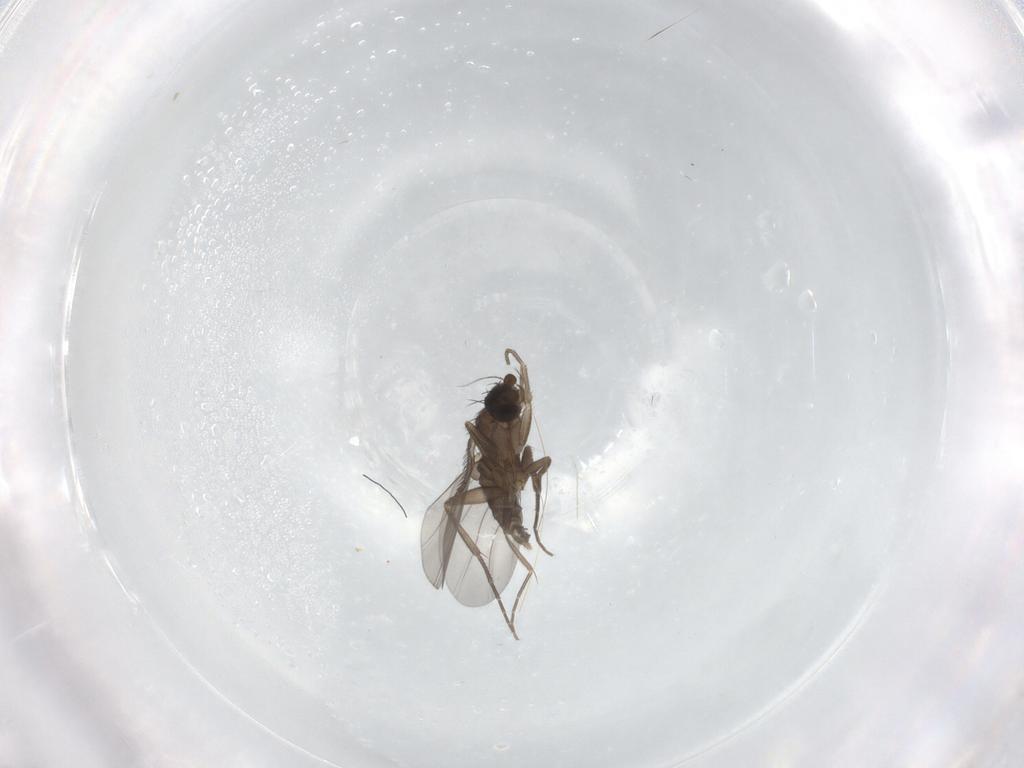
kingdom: Animalia
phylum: Arthropoda
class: Insecta
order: Diptera
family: Phoridae
